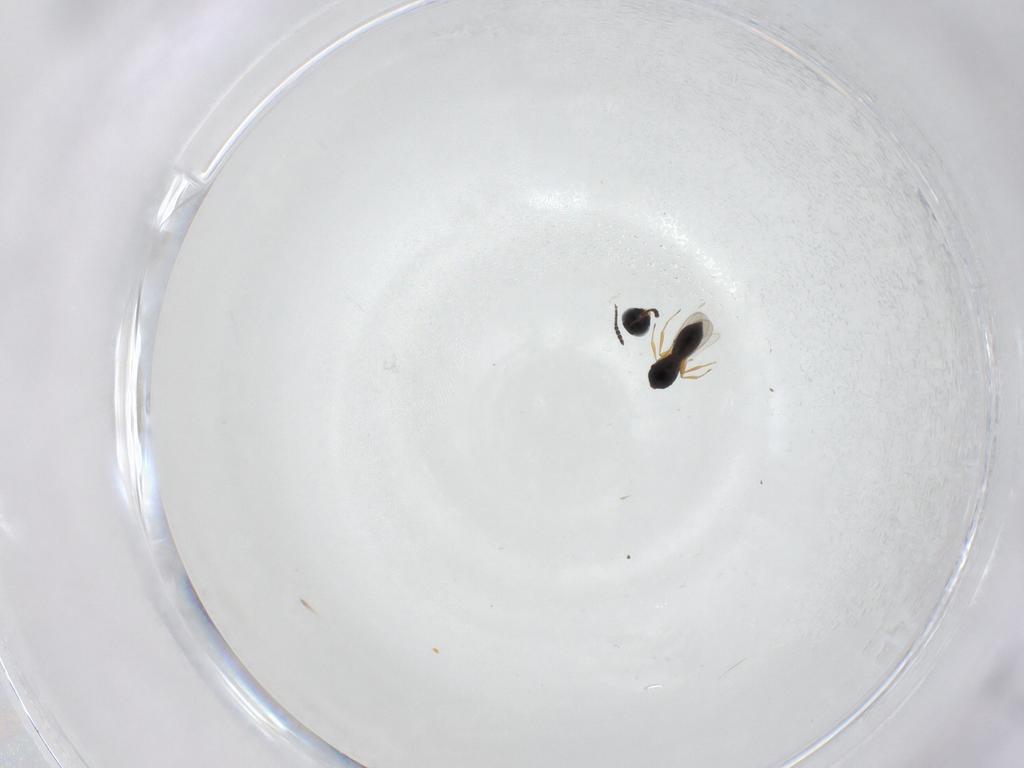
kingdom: Animalia
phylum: Arthropoda
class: Insecta
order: Hymenoptera
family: Scelionidae
